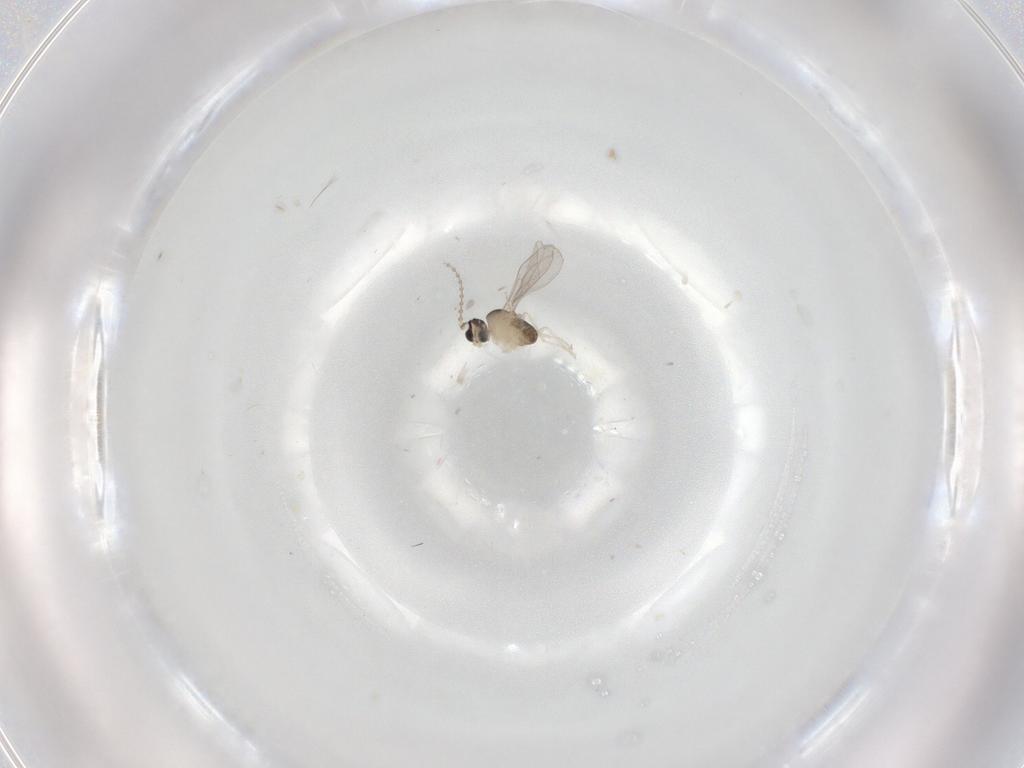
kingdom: Animalia
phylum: Arthropoda
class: Insecta
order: Diptera
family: Cecidomyiidae
